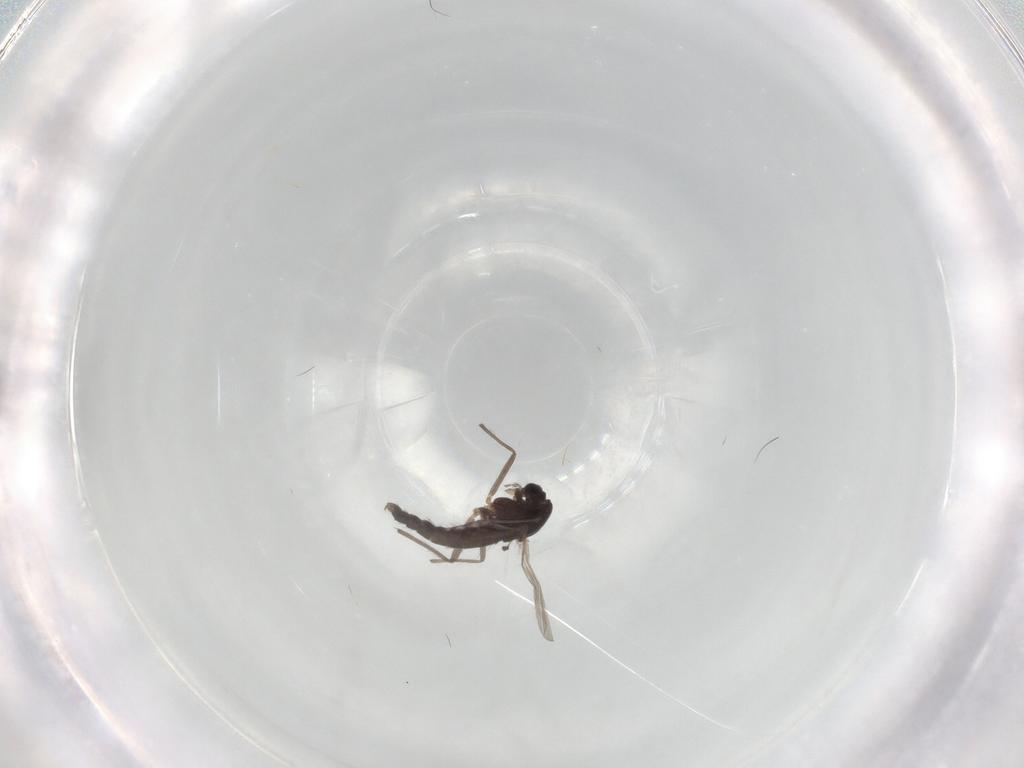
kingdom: Animalia
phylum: Arthropoda
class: Insecta
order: Diptera
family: Chironomidae
